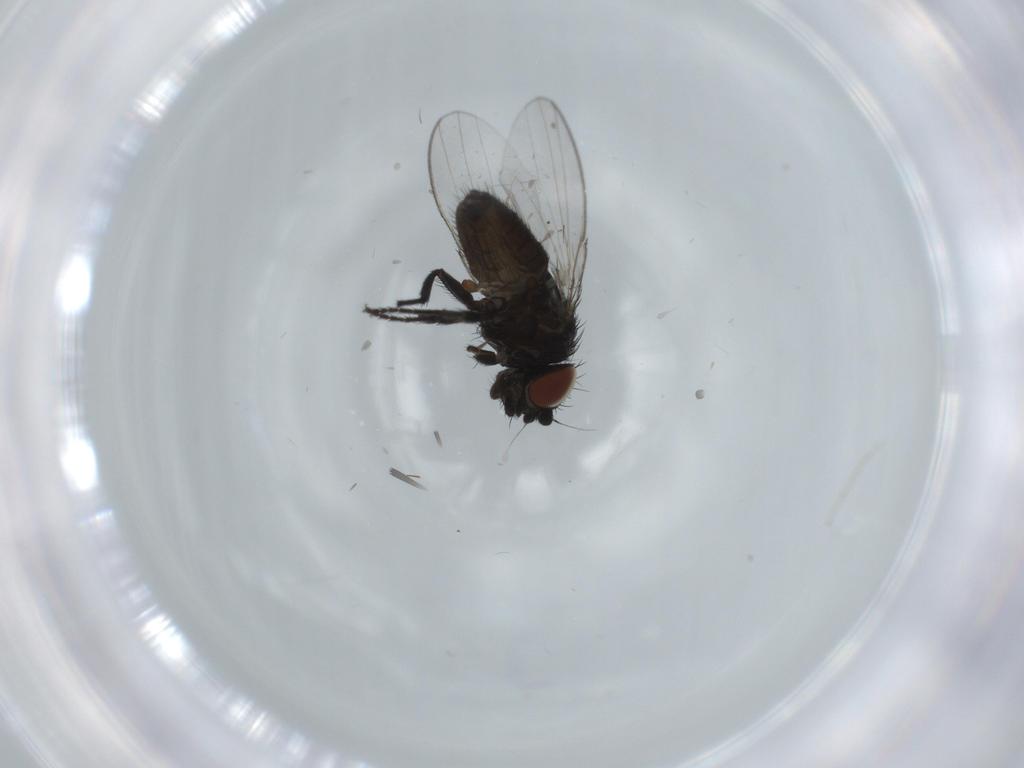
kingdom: Animalia
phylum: Arthropoda
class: Insecta
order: Diptera
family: Milichiidae
